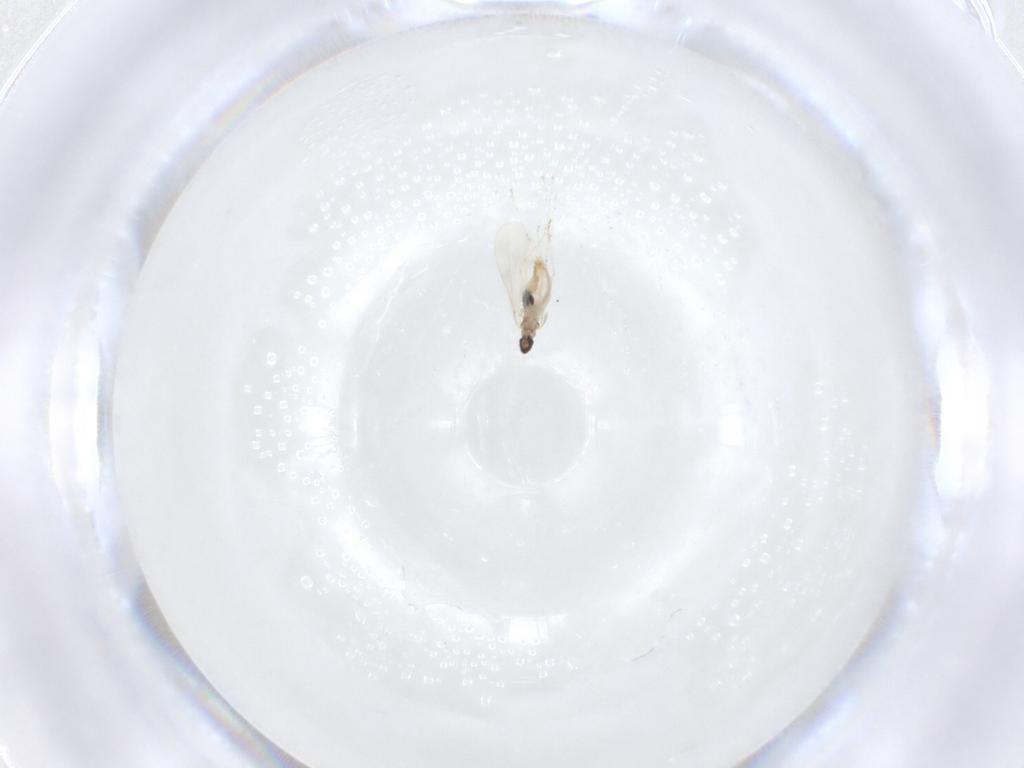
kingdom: Animalia
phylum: Arthropoda
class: Insecta
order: Diptera
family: Cecidomyiidae
